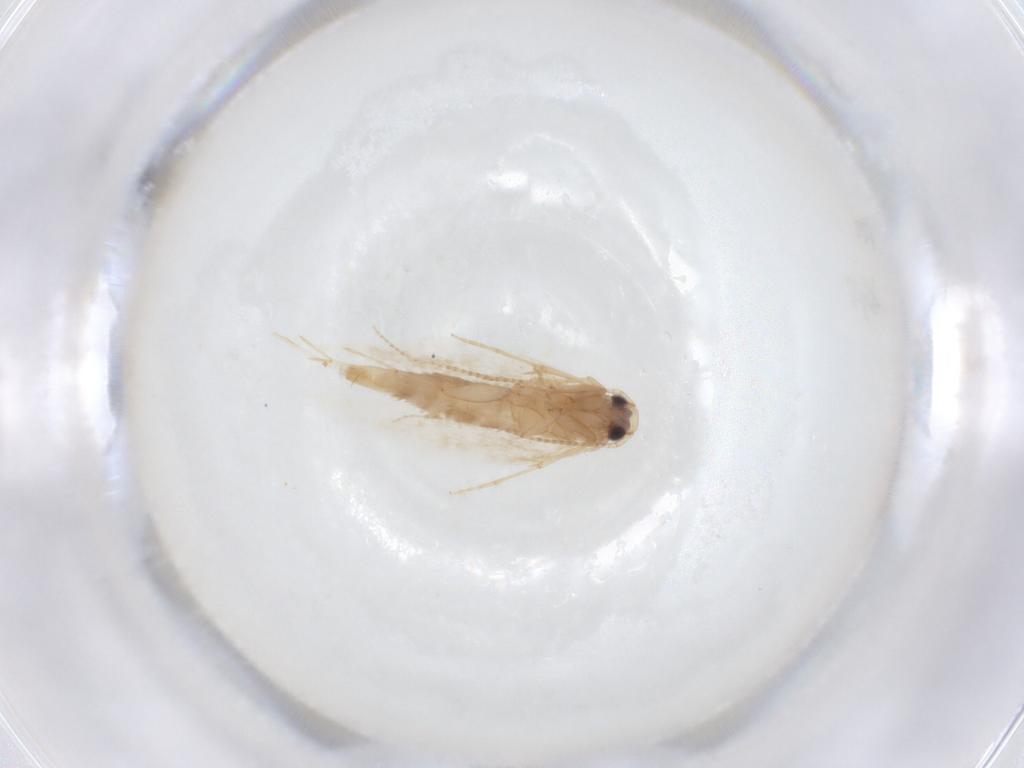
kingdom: Animalia
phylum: Arthropoda
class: Insecta
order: Lepidoptera
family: Tineidae
